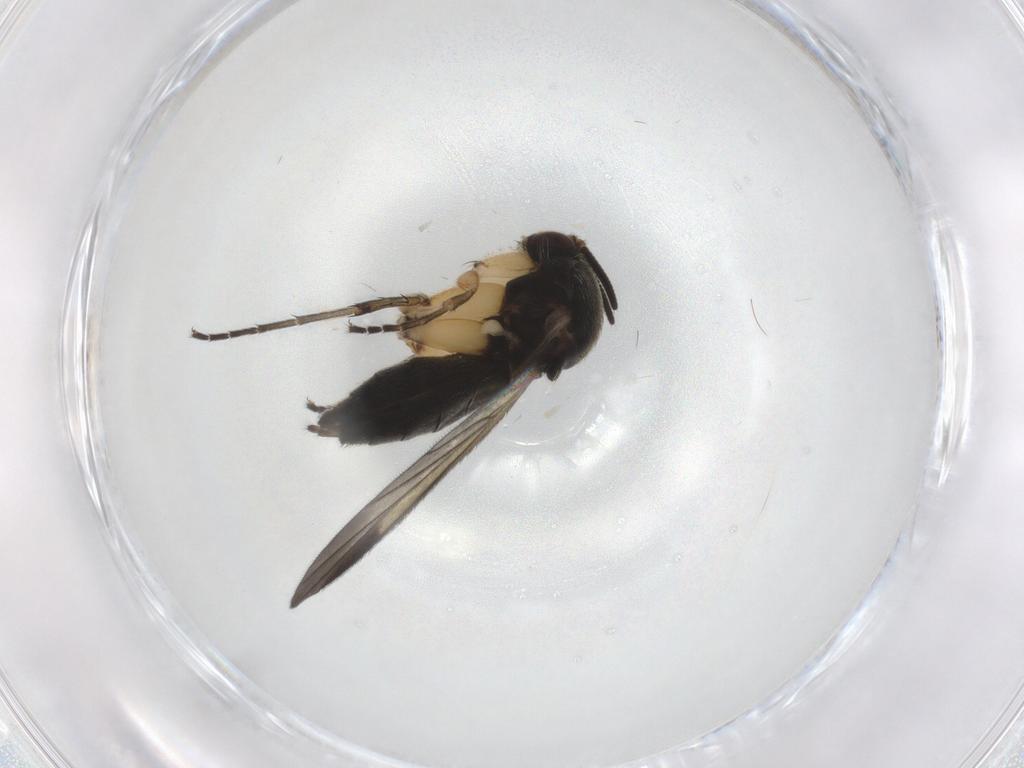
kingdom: Animalia
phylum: Arthropoda
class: Insecta
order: Diptera
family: Mycetophilidae
